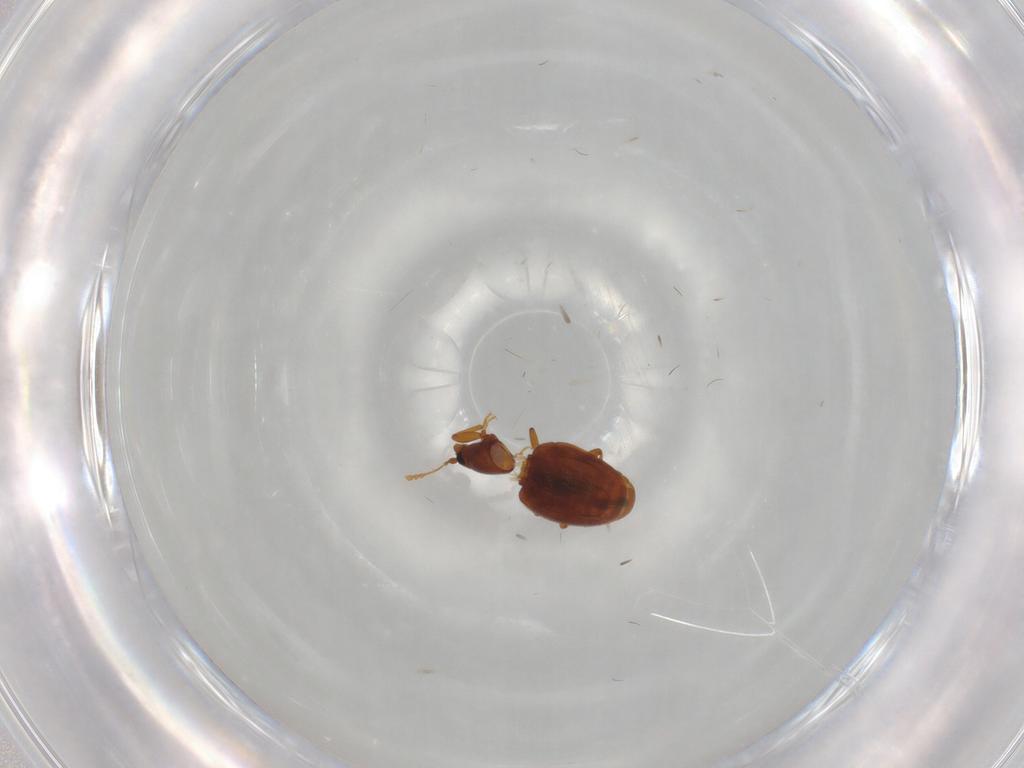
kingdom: Animalia
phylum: Arthropoda
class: Insecta
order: Coleoptera
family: Latridiidae
